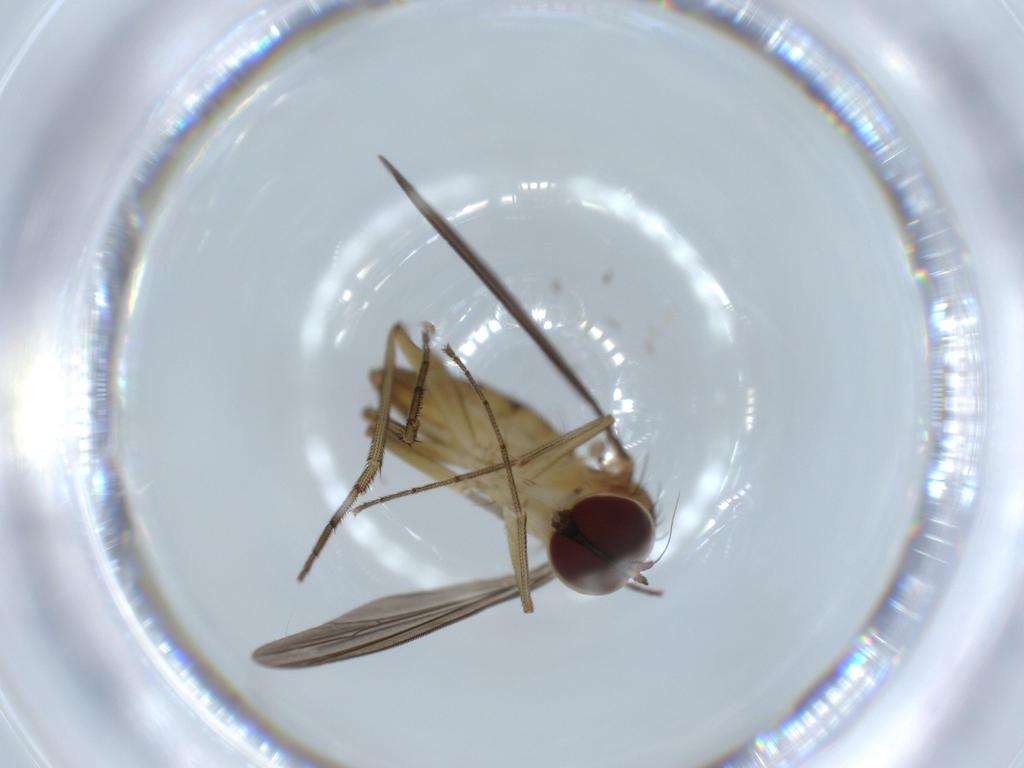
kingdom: Animalia
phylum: Arthropoda
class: Insecta
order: Diptera
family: Dolichopodidae
